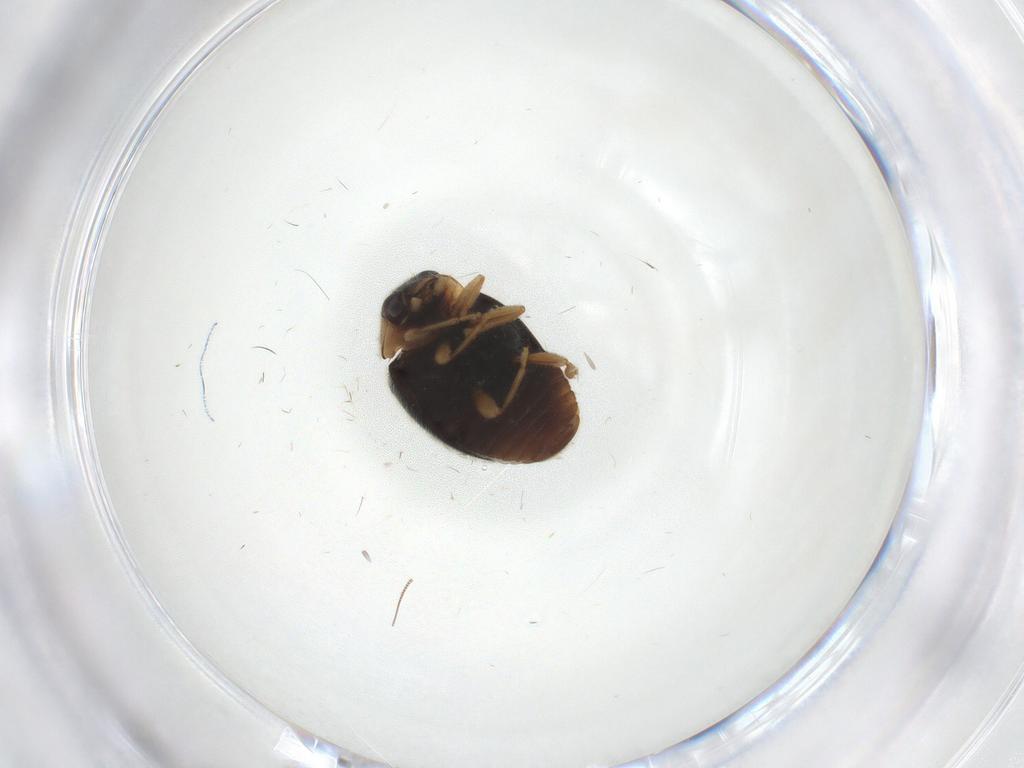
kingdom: Animalia
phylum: Arthropoda
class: Insecta
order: Coleoptera
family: Coccinellidae
